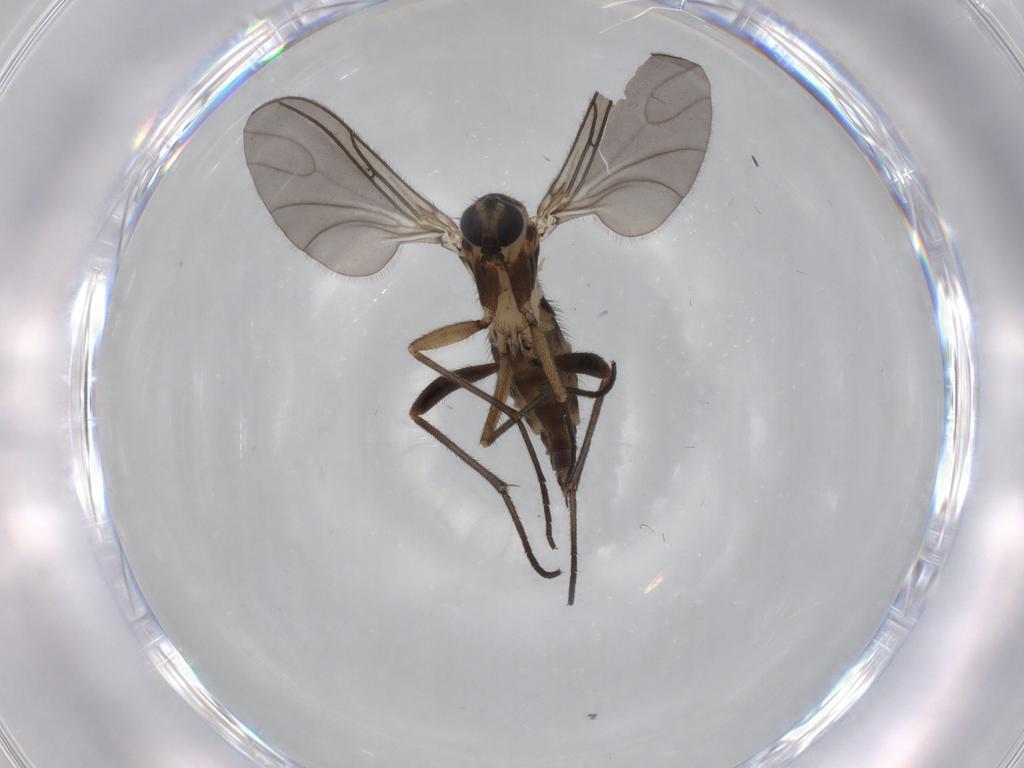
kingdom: Animalia
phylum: Arthropoda
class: Insecta
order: Diptera
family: Sciaridae
